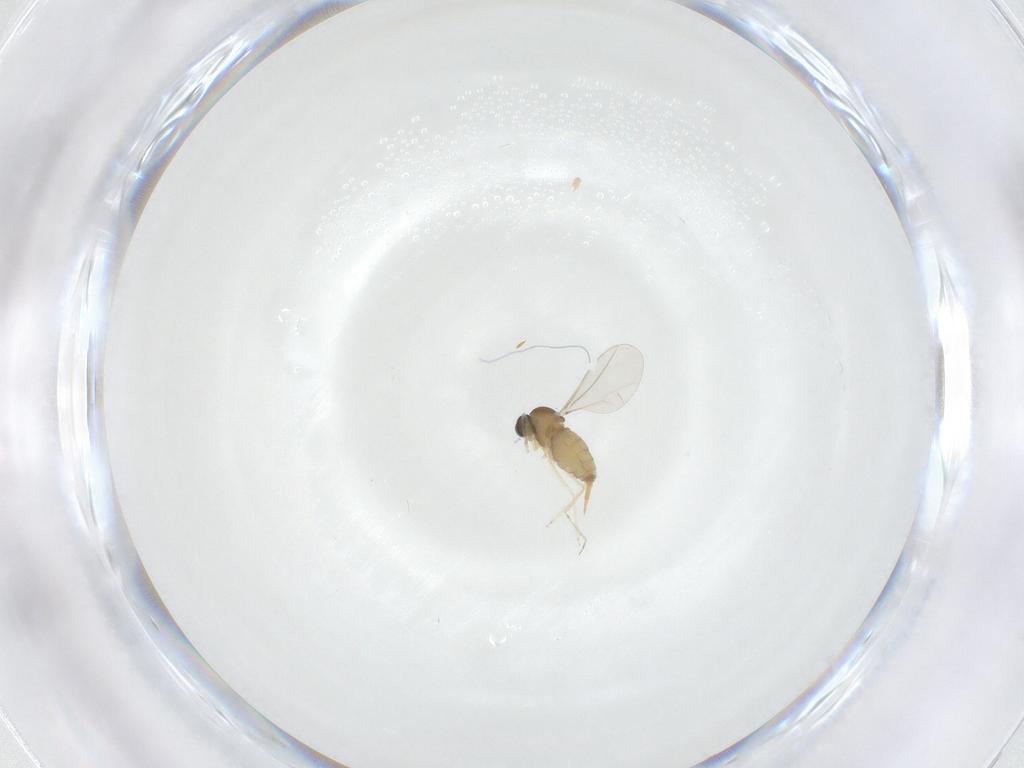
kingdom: Animalia
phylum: Arthropoda
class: Insecta
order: Diptera
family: Cecidomyiidae
